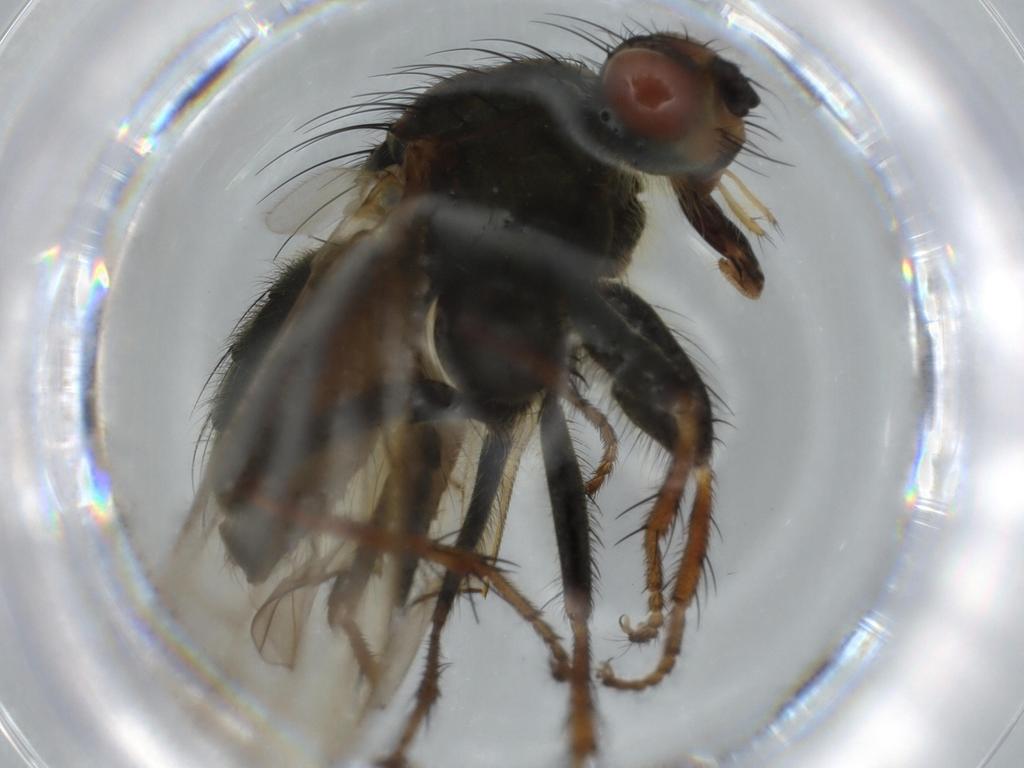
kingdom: Animalia
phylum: Arthropoda
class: Insecta
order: Diptera
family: Scathophagidae
